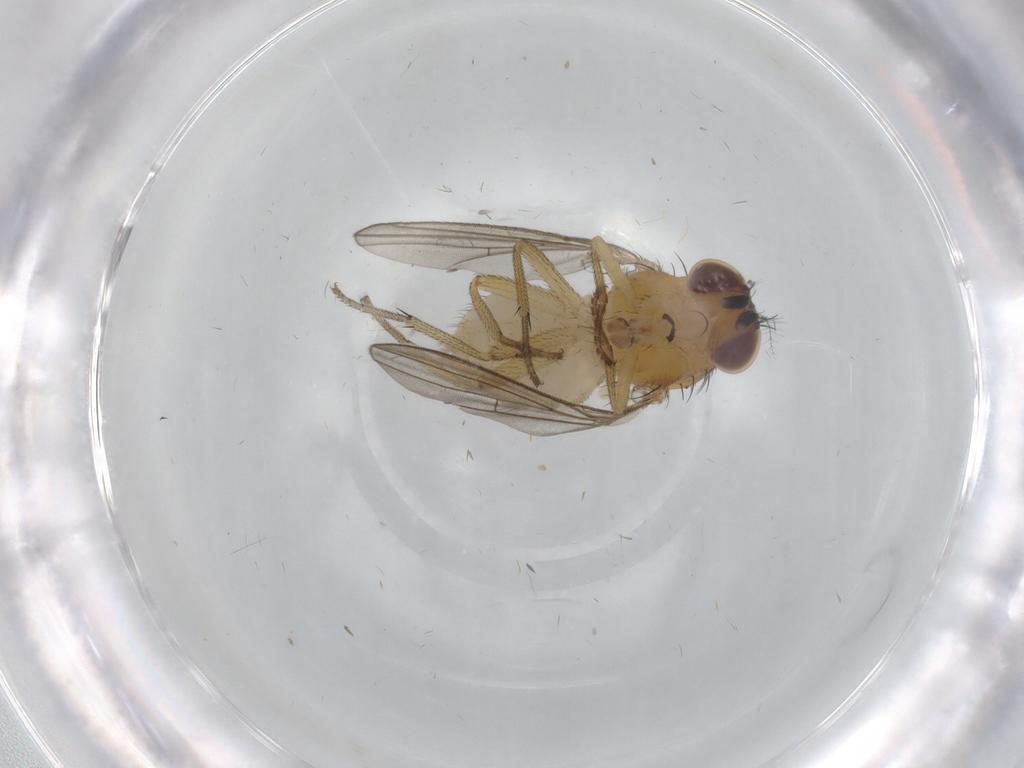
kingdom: Animalia
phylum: Arthropoda
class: Insecta
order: Diptera
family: Lauxaniidae
